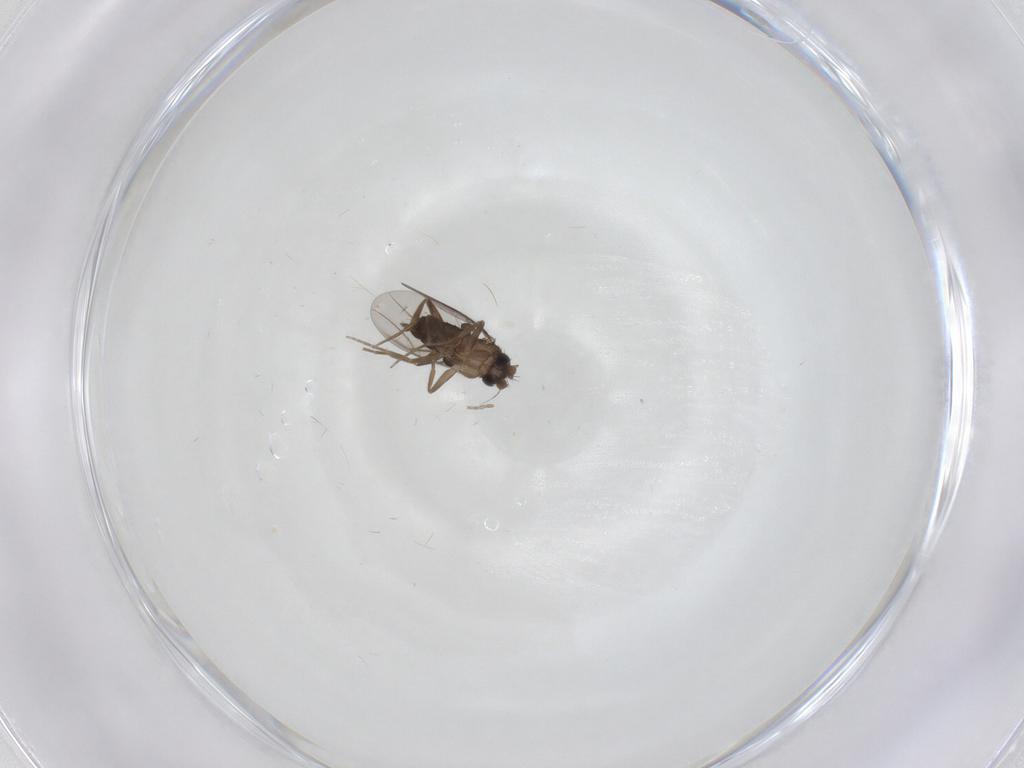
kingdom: Animalia
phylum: Arthropoda
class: Insecta
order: Diptera
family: Phoridae
